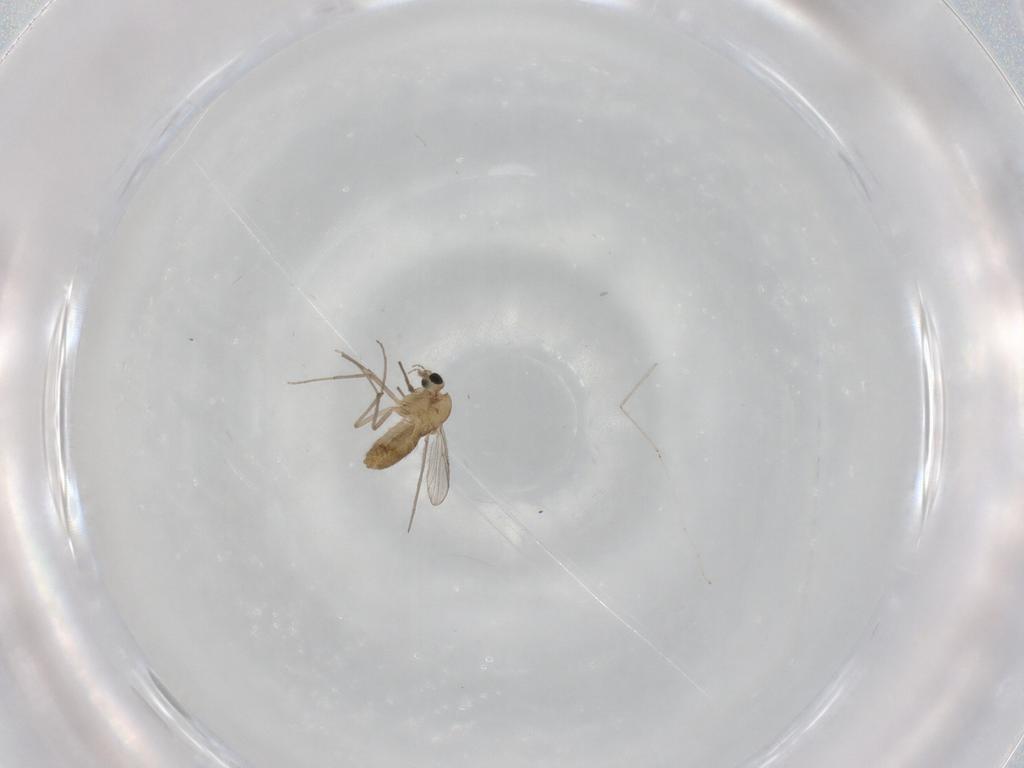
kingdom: Animalia
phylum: Arthropoda
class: Insecta
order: Diptera
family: Chironomidae
